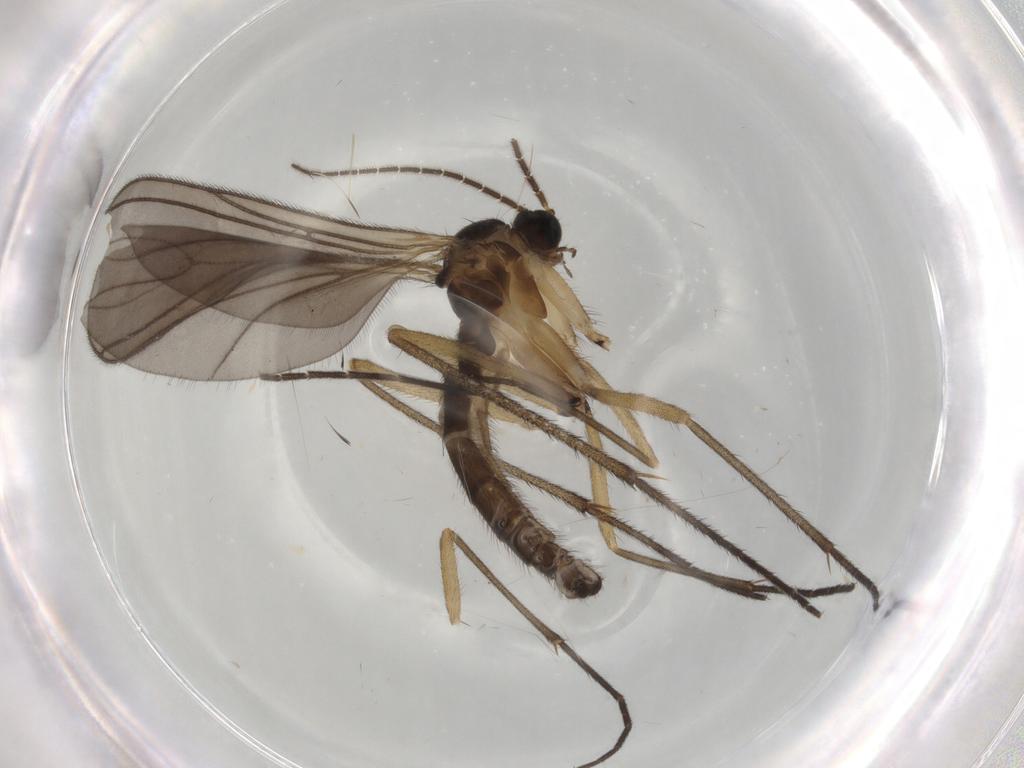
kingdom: Animalia
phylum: Arthropoda
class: Insecta
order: Diptera
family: Sciaridae
